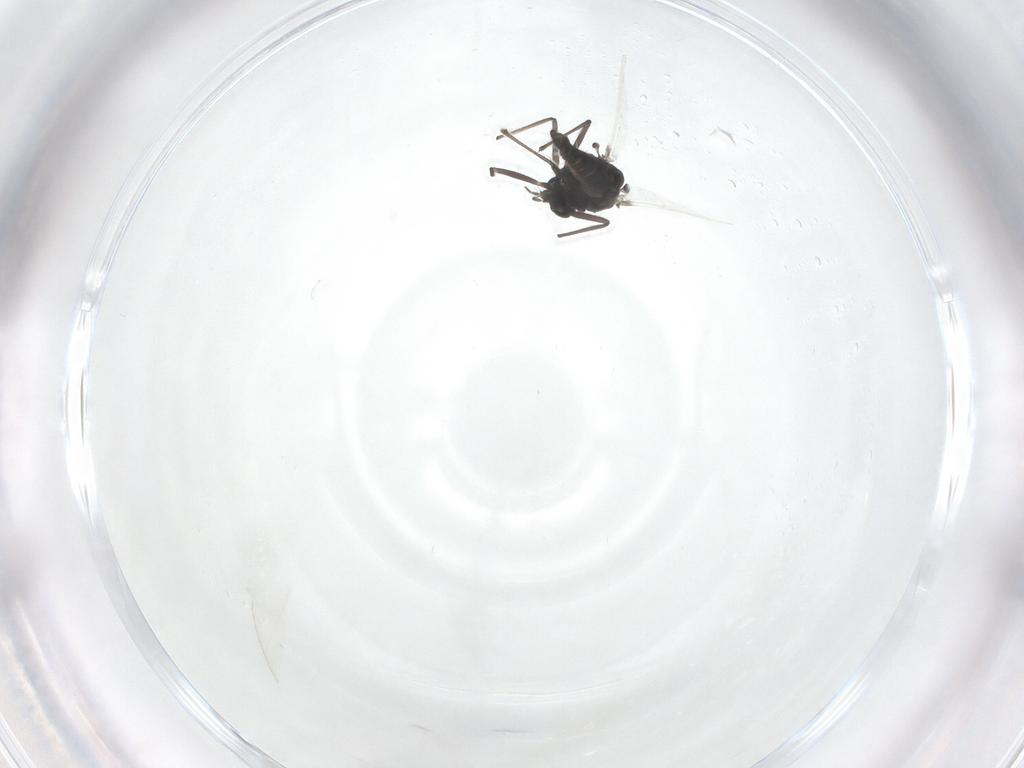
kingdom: Animalia
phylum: Arthropoda
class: Insecta
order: Diptera
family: Chironomidae
